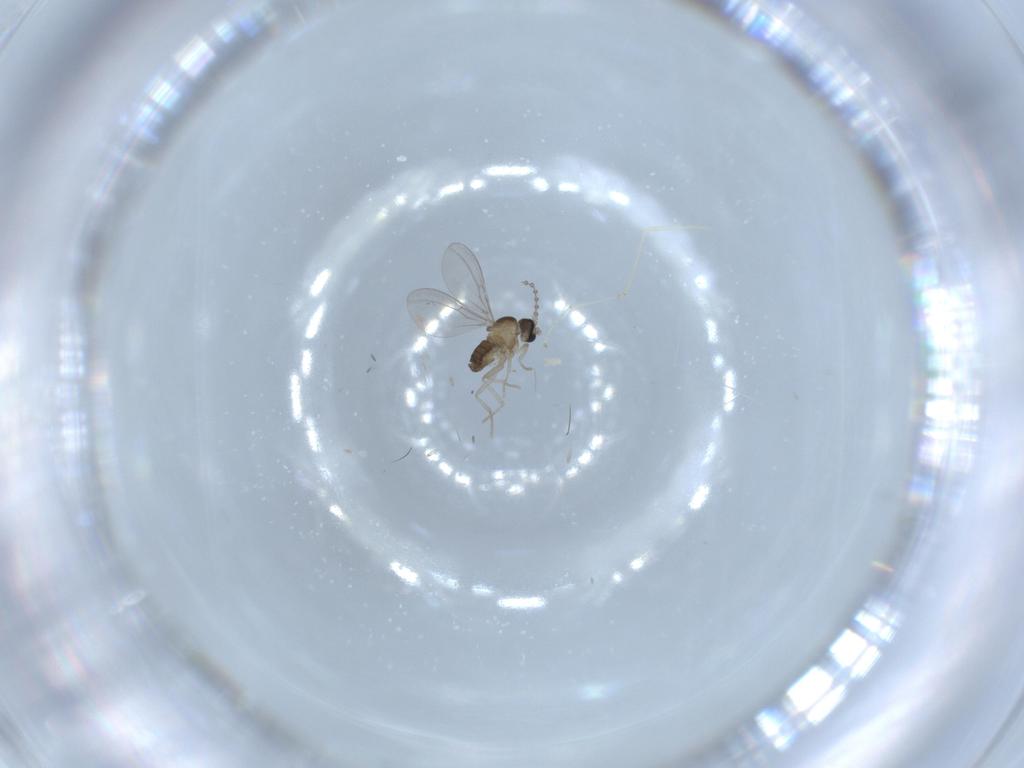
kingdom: Animalia
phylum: Arthropoda
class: Insecta
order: Diptera
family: Cecidomyiidae
